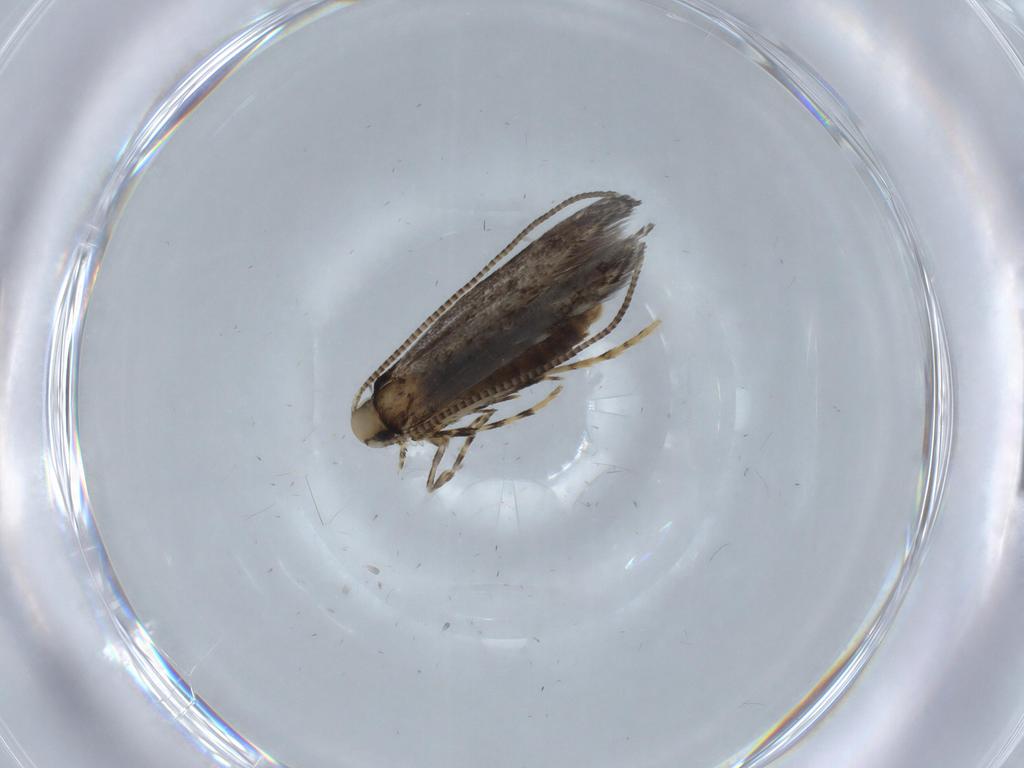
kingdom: Animalia
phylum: Arthropoda
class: Insecta
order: Lepidoptera
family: Gracillariidae
